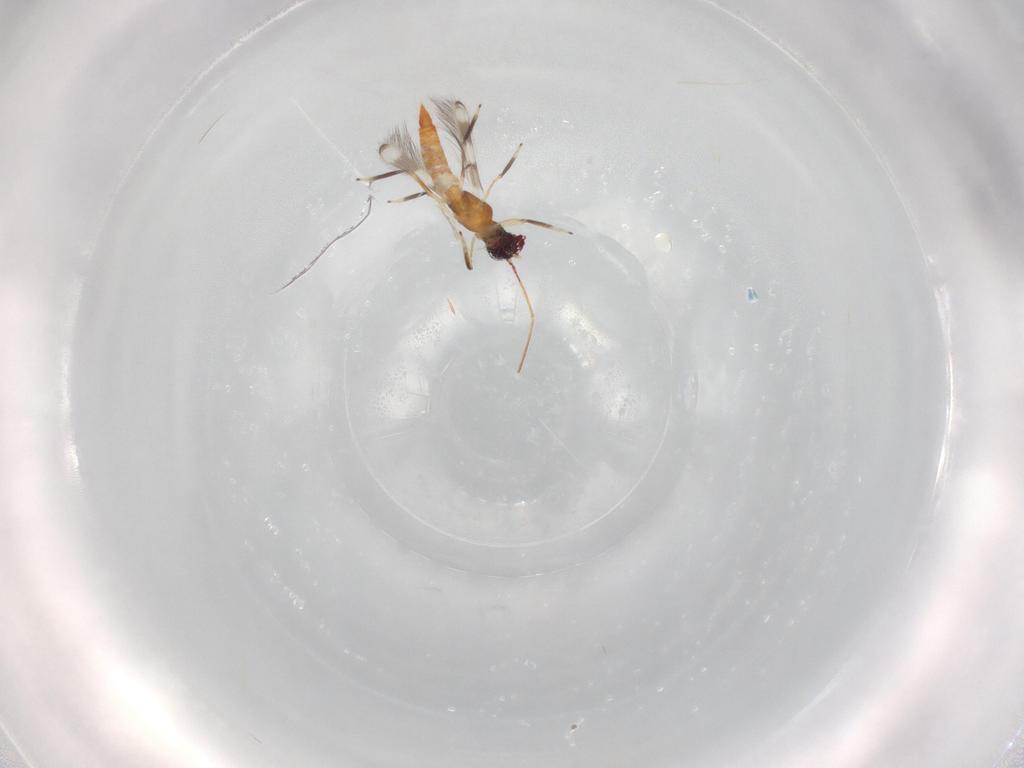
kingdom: Animalia
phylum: Arthropoda
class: Insecta
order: Thysanoptera
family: Aeolothripidae
